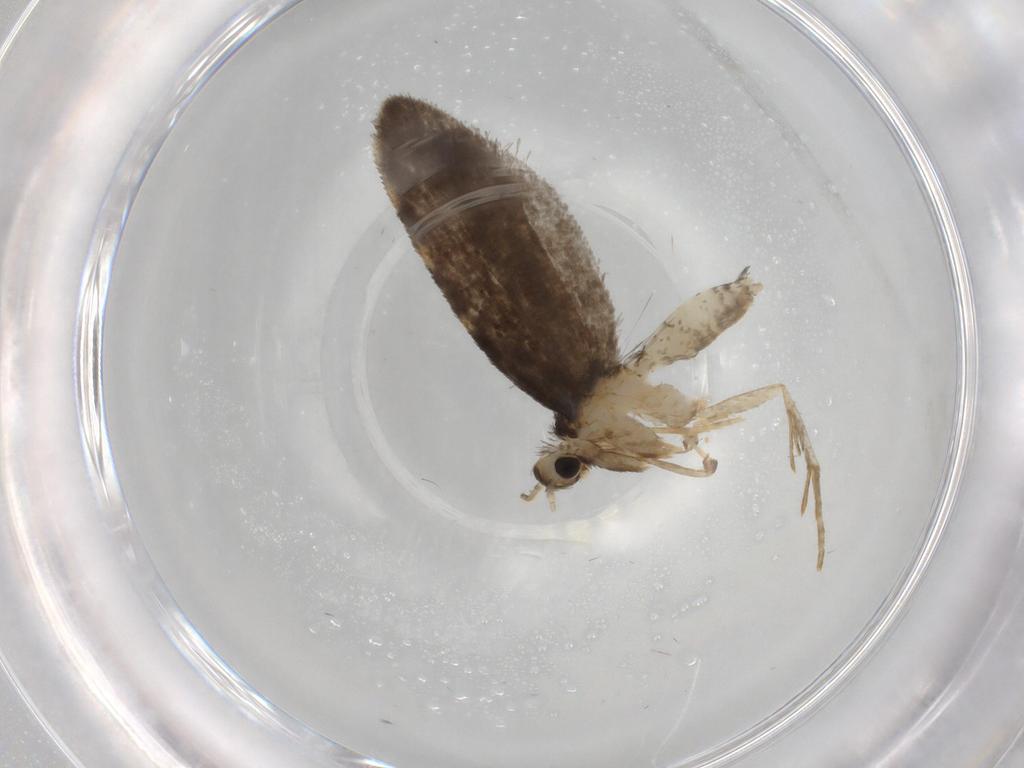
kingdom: Animalia
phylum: Arthropoda
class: Insecta
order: Lepidoptera
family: Psychidae
